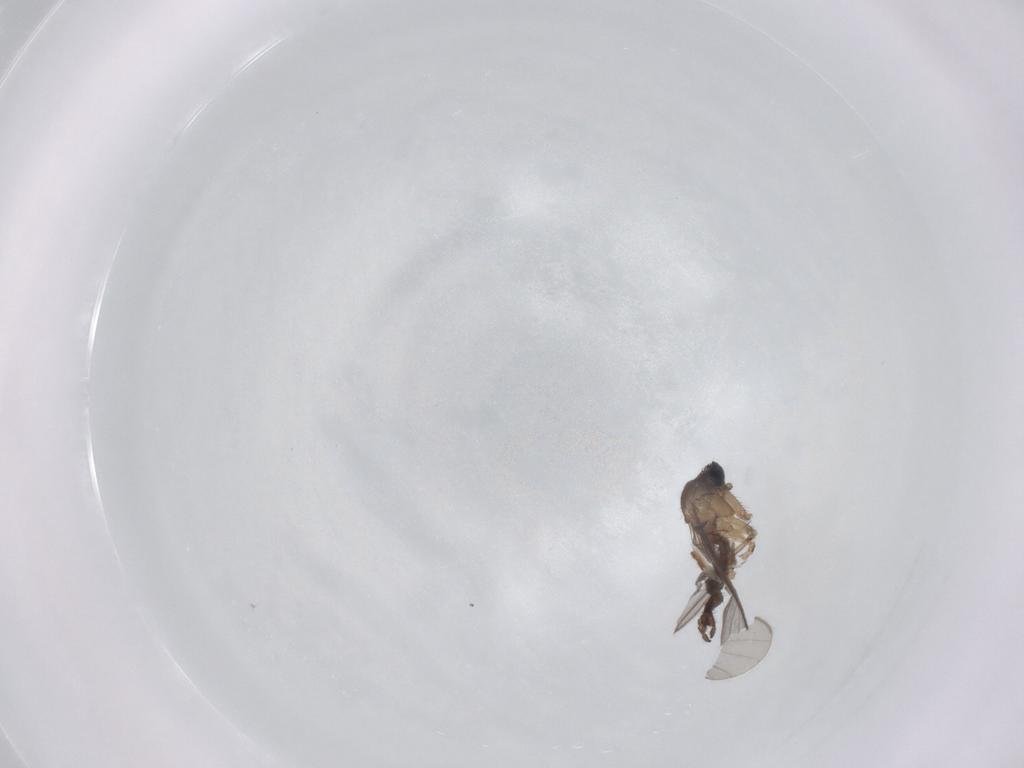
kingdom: Animalia
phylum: Arthropoda
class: Insecta
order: Diptera
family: Sciaridae
